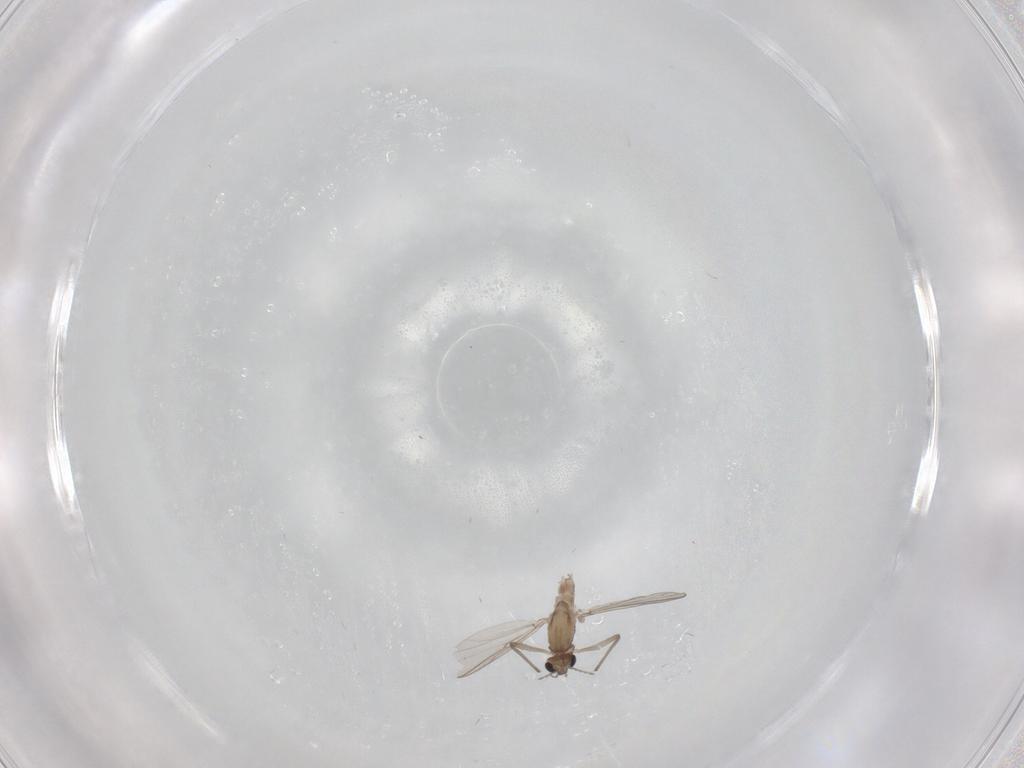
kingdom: Animalia
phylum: Arthropoda
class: Insecta
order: Diptera
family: Chironomidae
